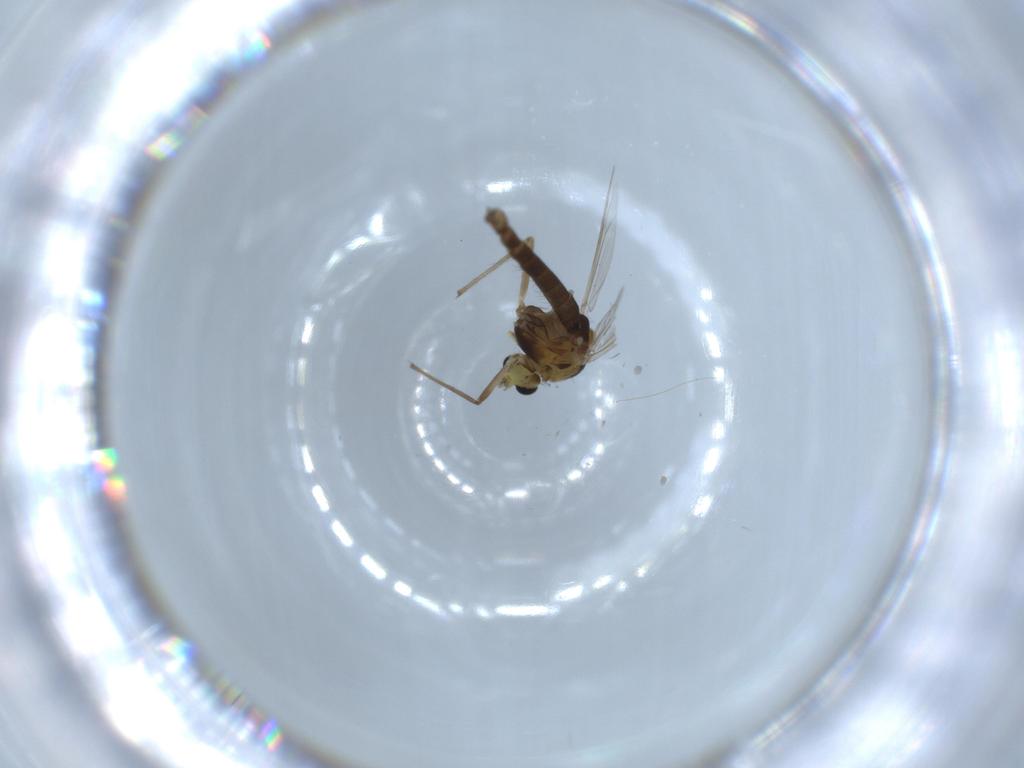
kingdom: Animalia
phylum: Arthropoda
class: Insecta
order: Diptera
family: Chironomidae
